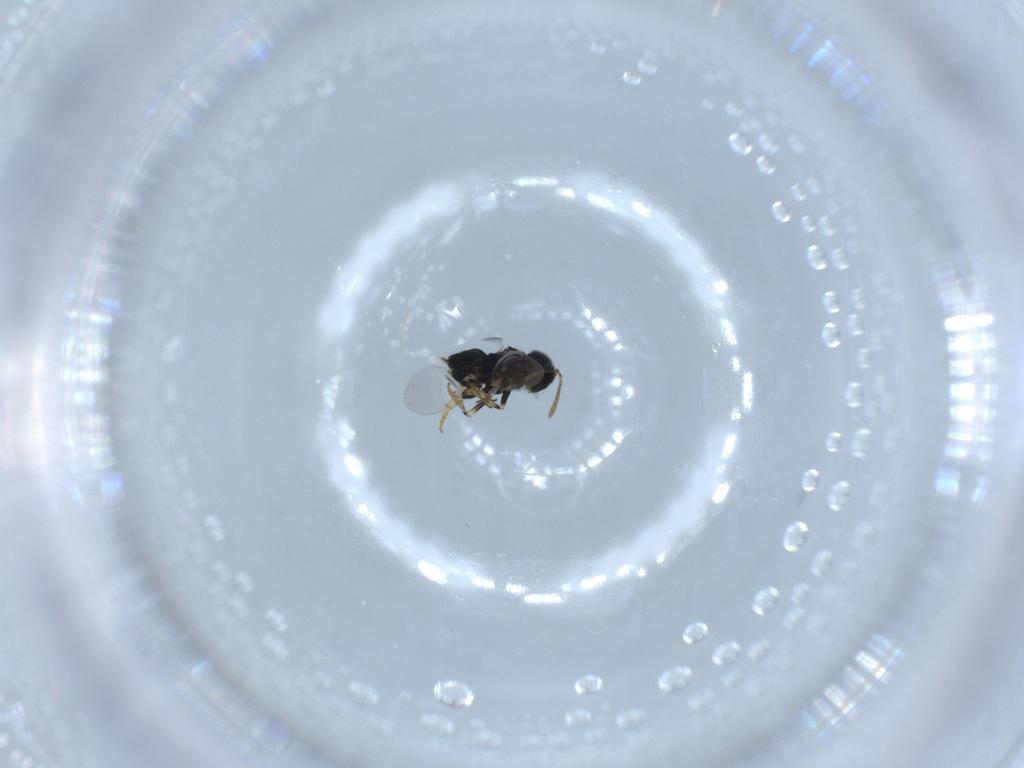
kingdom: Animalia
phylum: Arthropoda
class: Insecta
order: Hymenoptera
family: Encyrtidae
